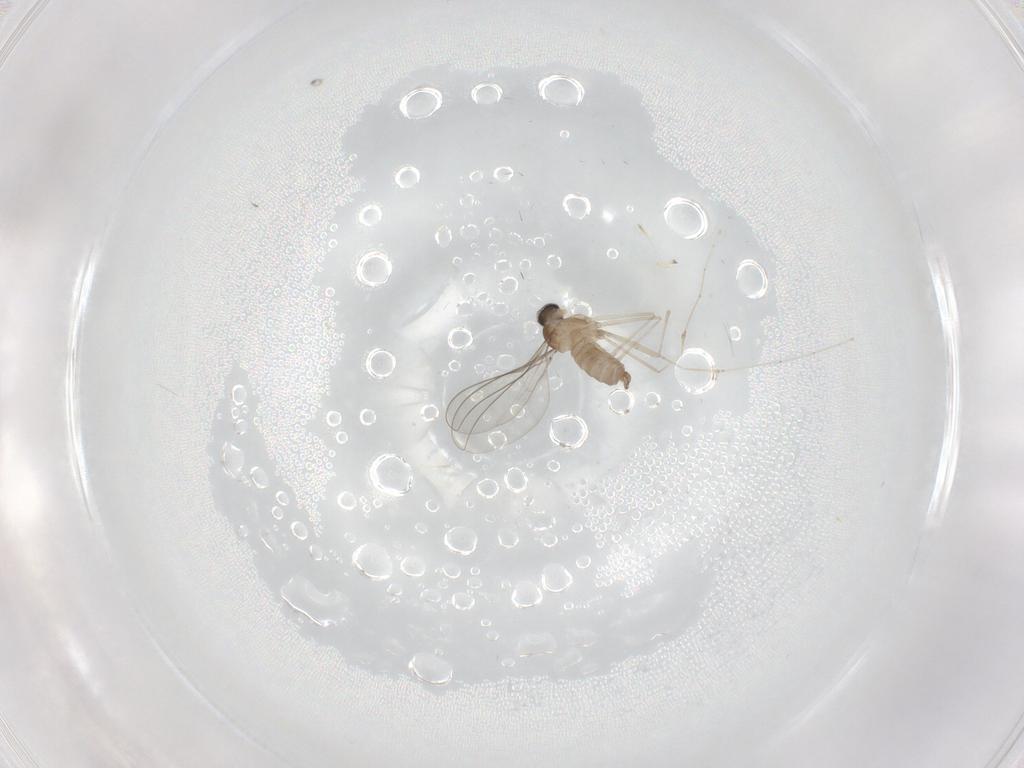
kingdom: Animalia
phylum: Arthropoda
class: Insecta
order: Diptera
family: Cecidomyiidae
